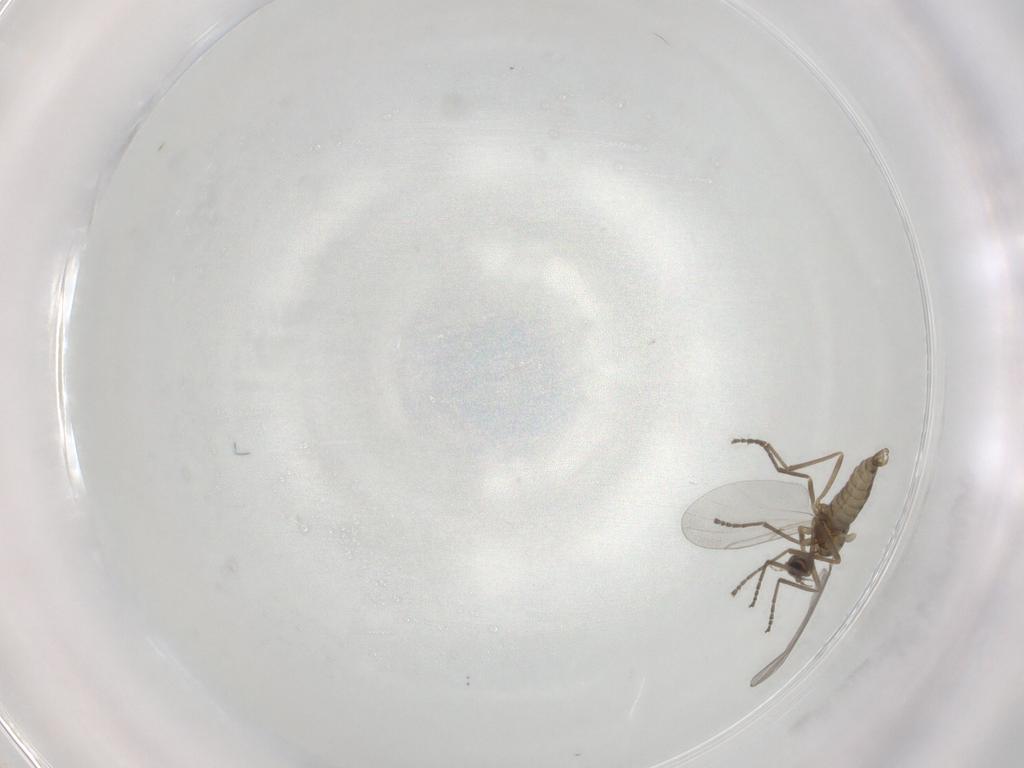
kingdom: Animalia
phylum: Arthropoda
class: Insecta
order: Diptera
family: Cecidomyiidae
